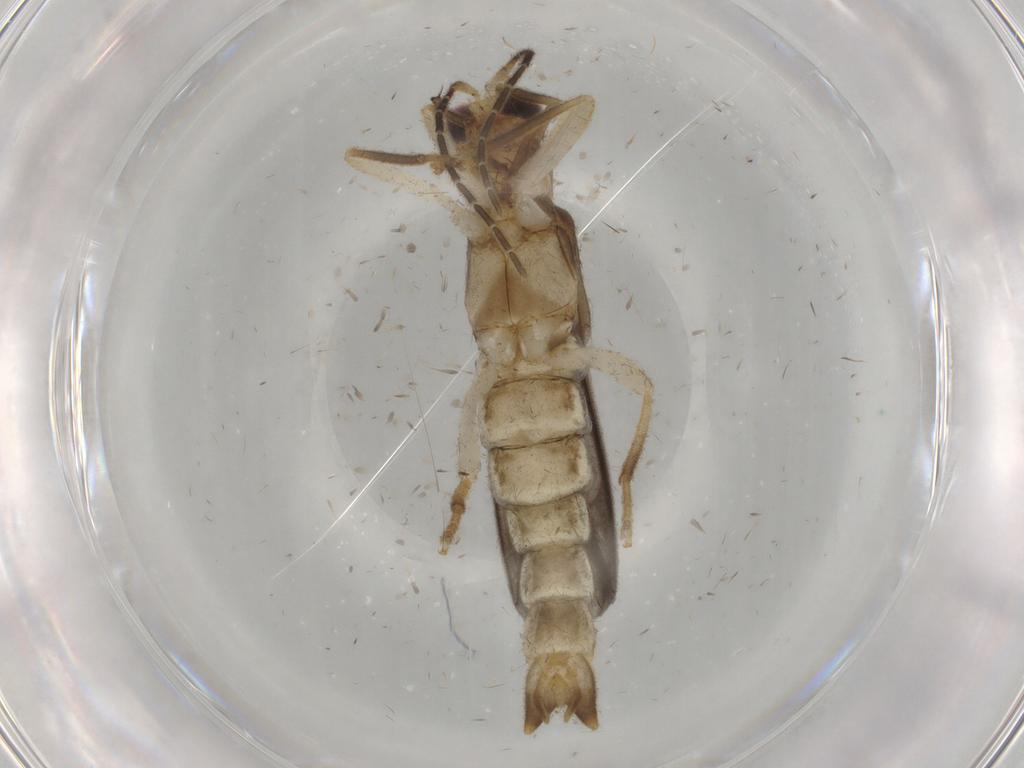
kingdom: Animalia
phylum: Arthropoda
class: Insecta
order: Coleoptera
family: Cantharidae
